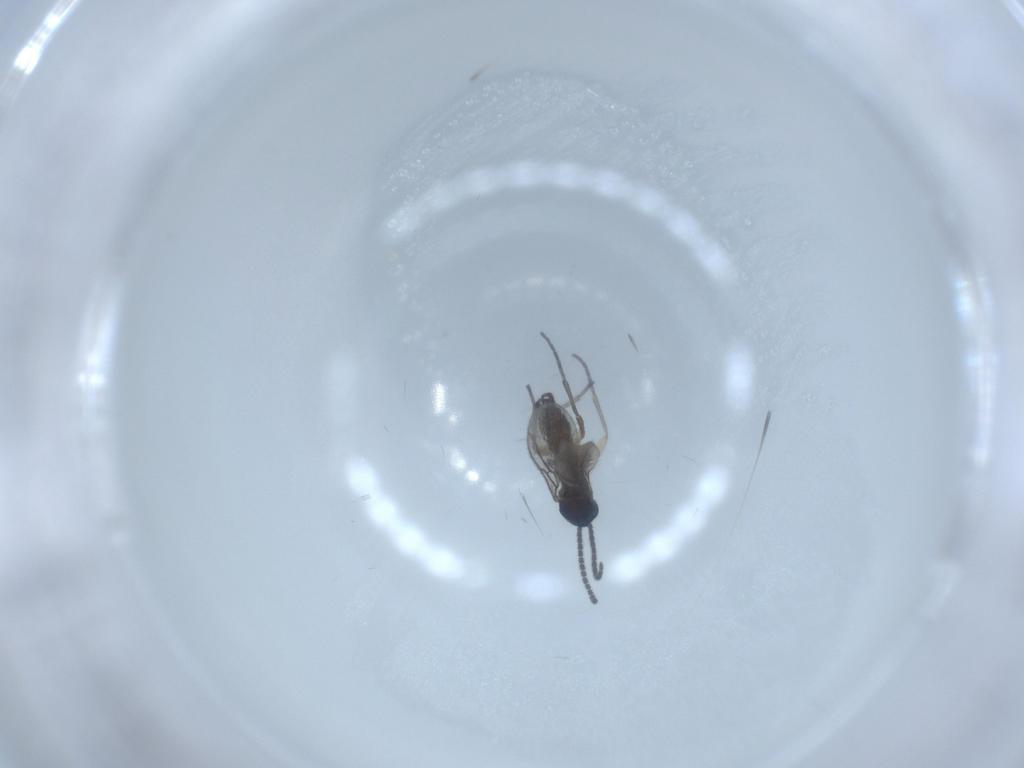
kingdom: Animalia
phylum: Arthropoda
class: Insecta
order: Diptera
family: Sciaridae
